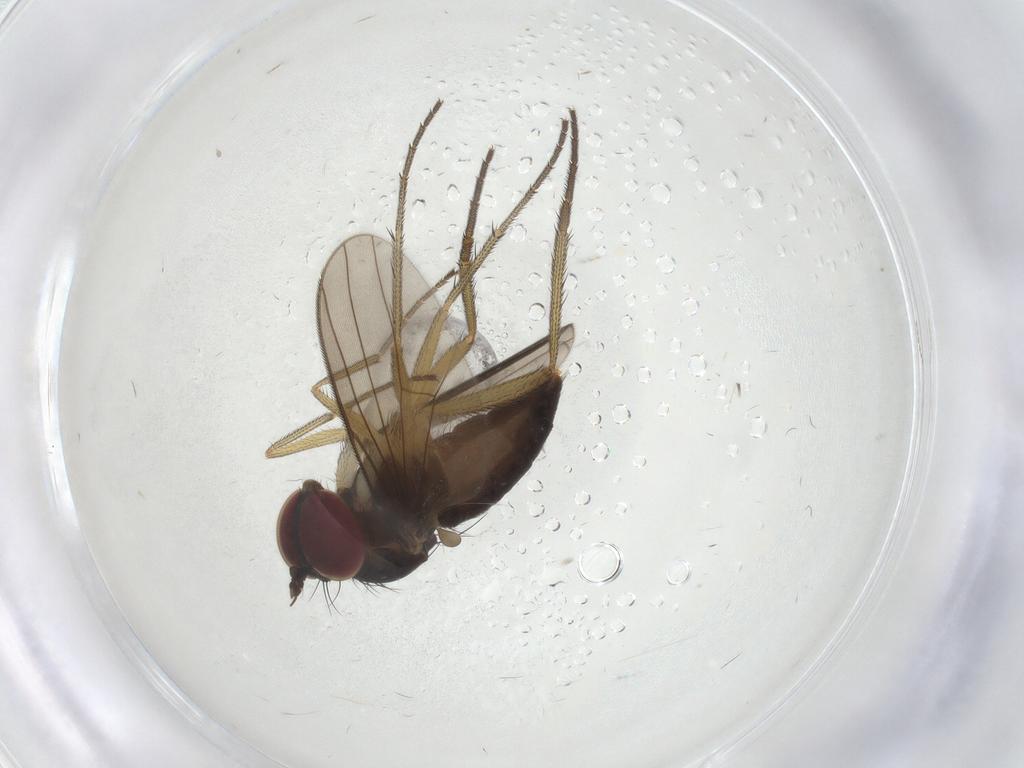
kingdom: Animalia
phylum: Arthropoda
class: Insecta
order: Diptera
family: Dolichopodidae
